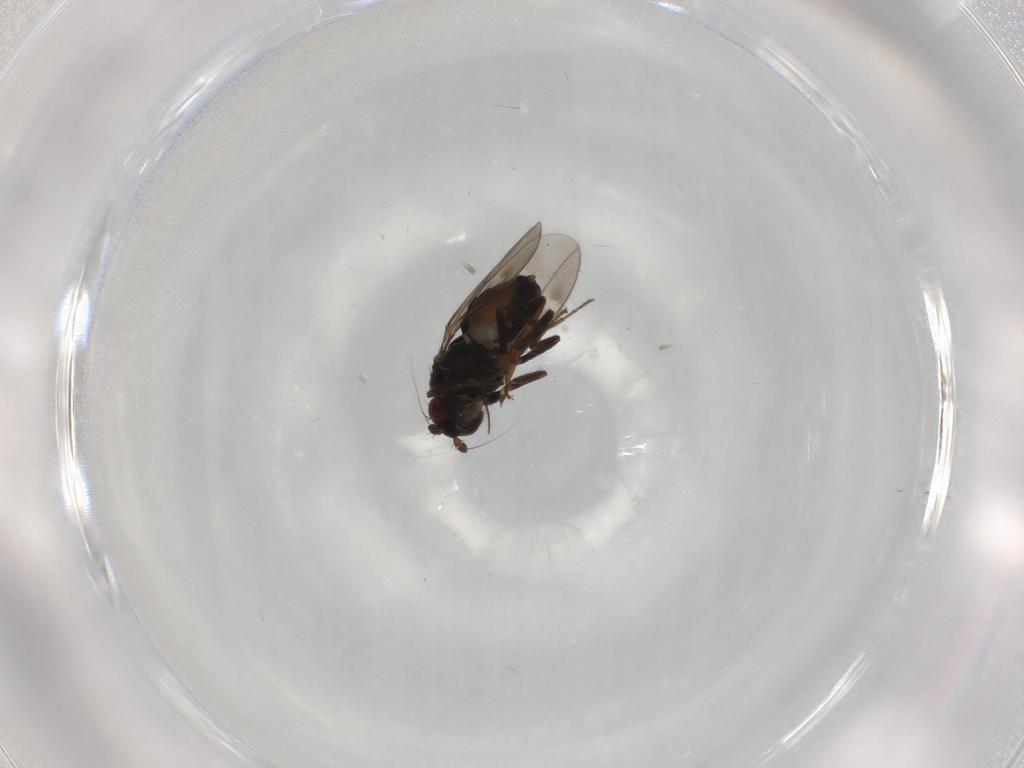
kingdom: Animalia
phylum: Arthropoda
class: Insecta
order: Diptera
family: Sphaeroceridae
